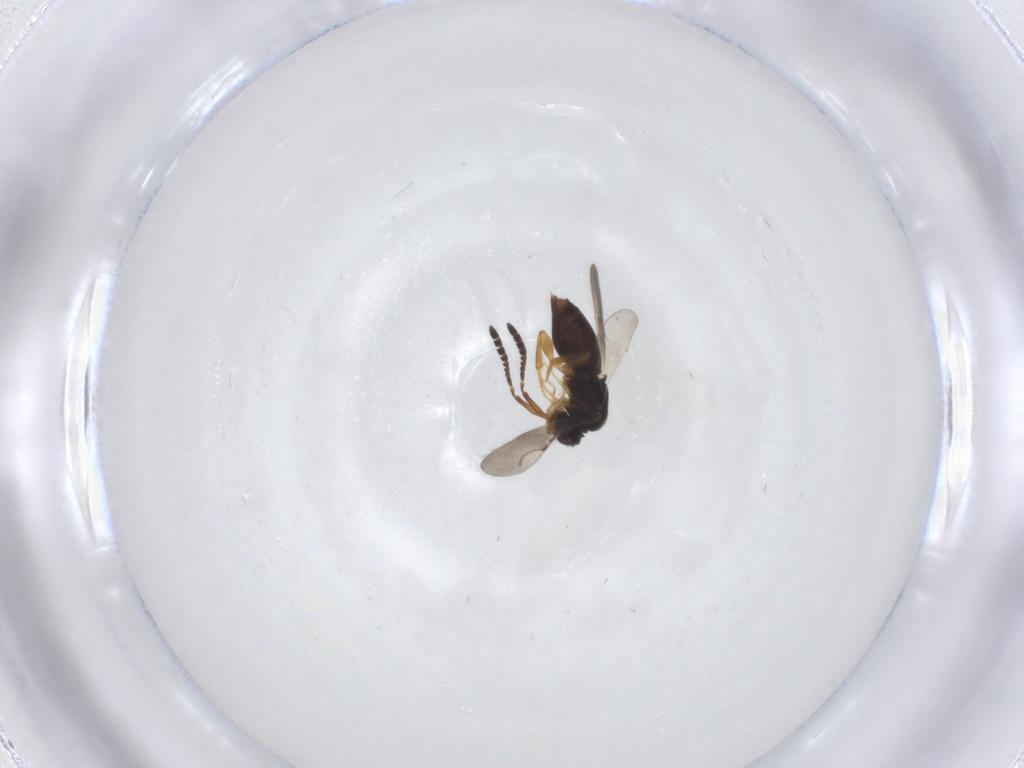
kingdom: Animalia
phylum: Arthropoda
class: Insecta
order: Hymenoptera
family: Ceraphronidae
